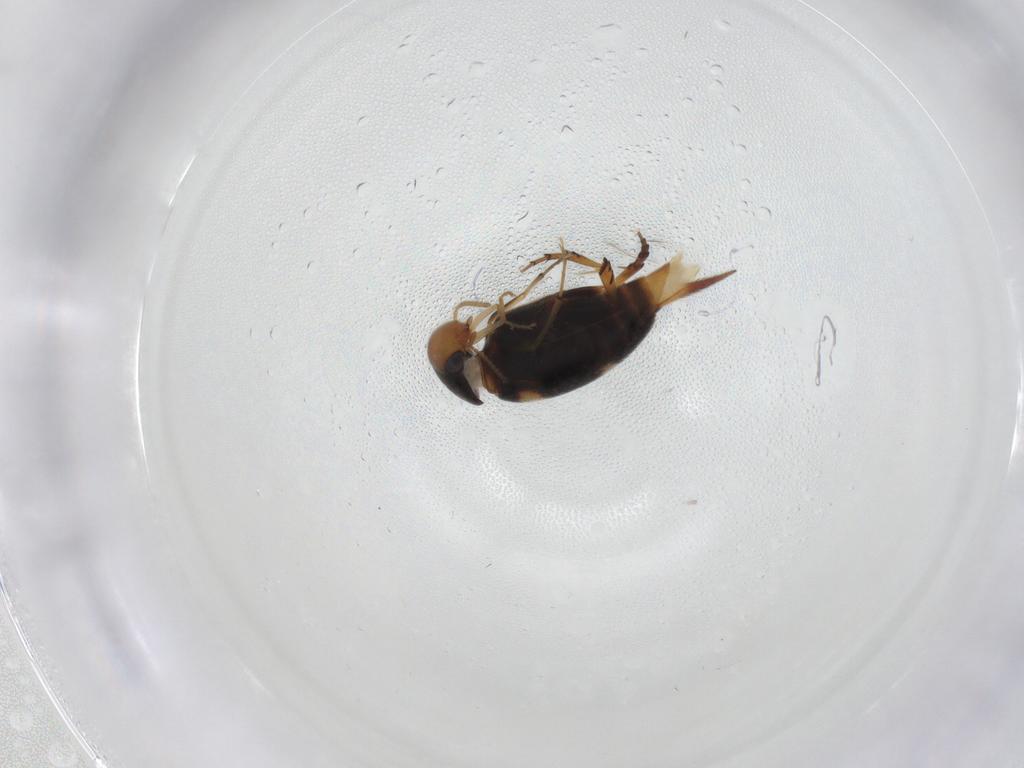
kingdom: Animalia
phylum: Arthropoda
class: Insecta
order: Coleoptera
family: Mordellidae
